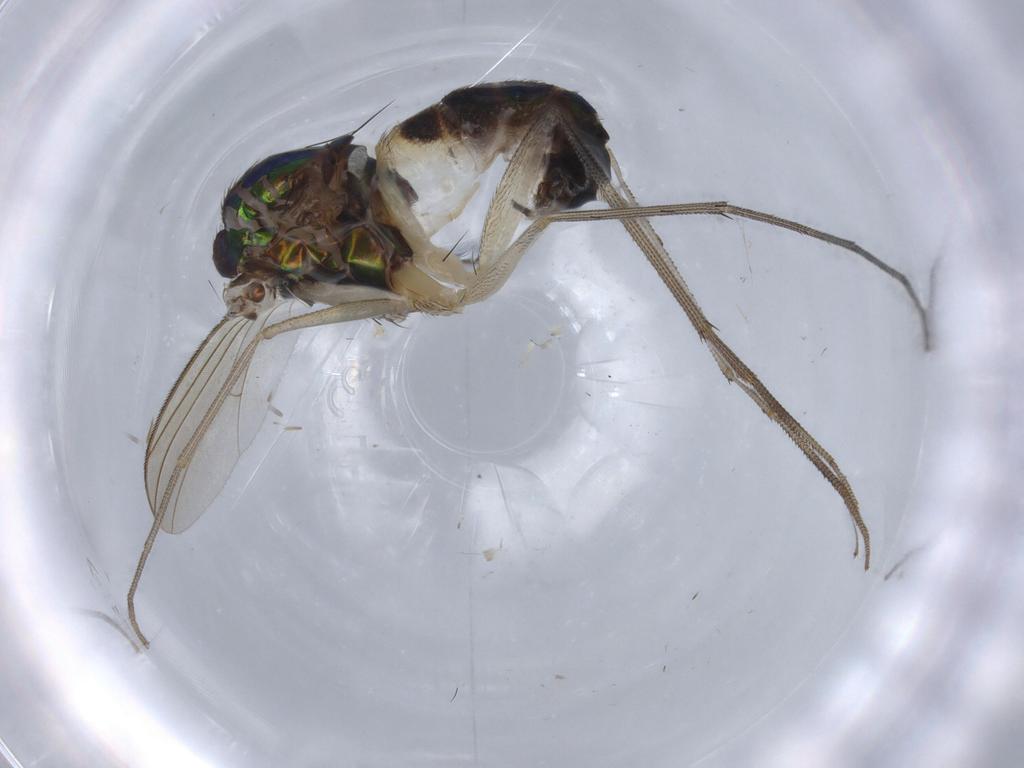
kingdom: Animalia
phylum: Arthropoda
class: Insecta
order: Diptera
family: Dolichopodidae
